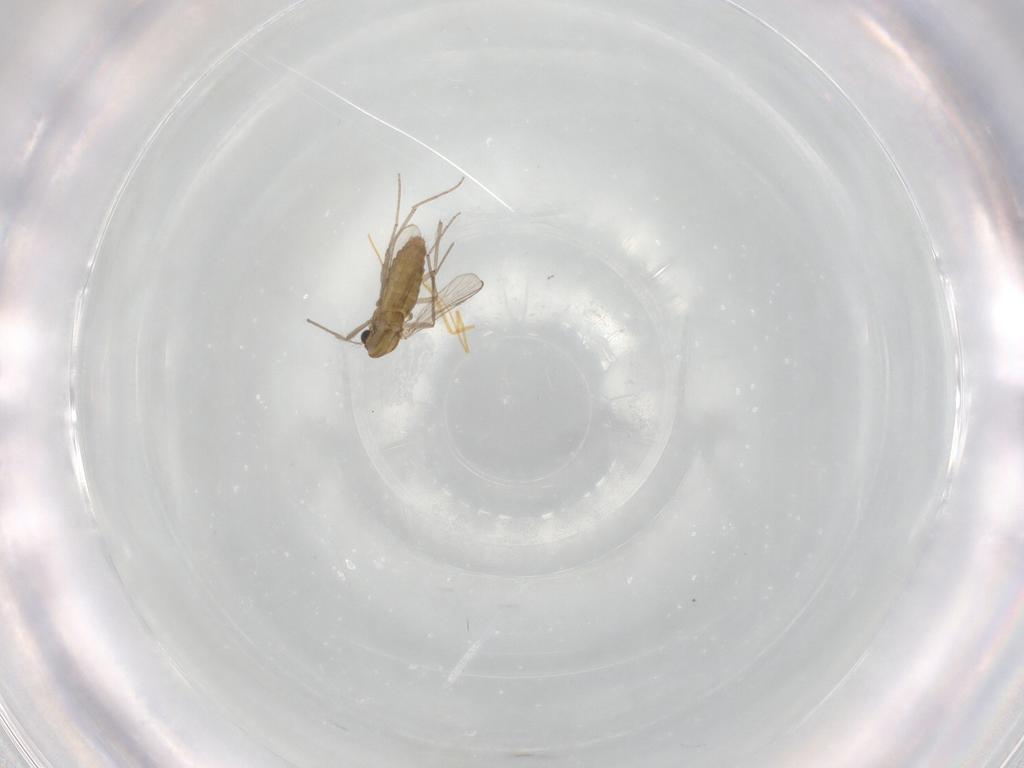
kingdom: Animalia
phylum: Arthropoda
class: Insecta
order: Diptera
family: Chironomidae
